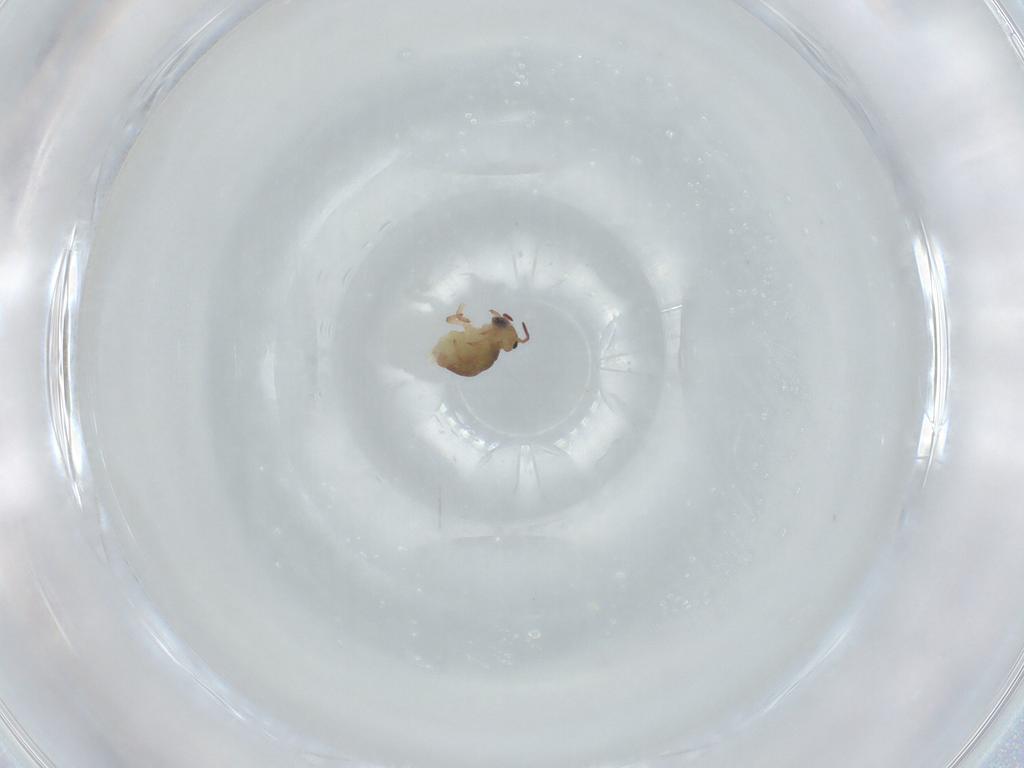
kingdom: Animalia
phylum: Arthropoda
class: Collembola
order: Symphypleona
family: Sminthurididae
